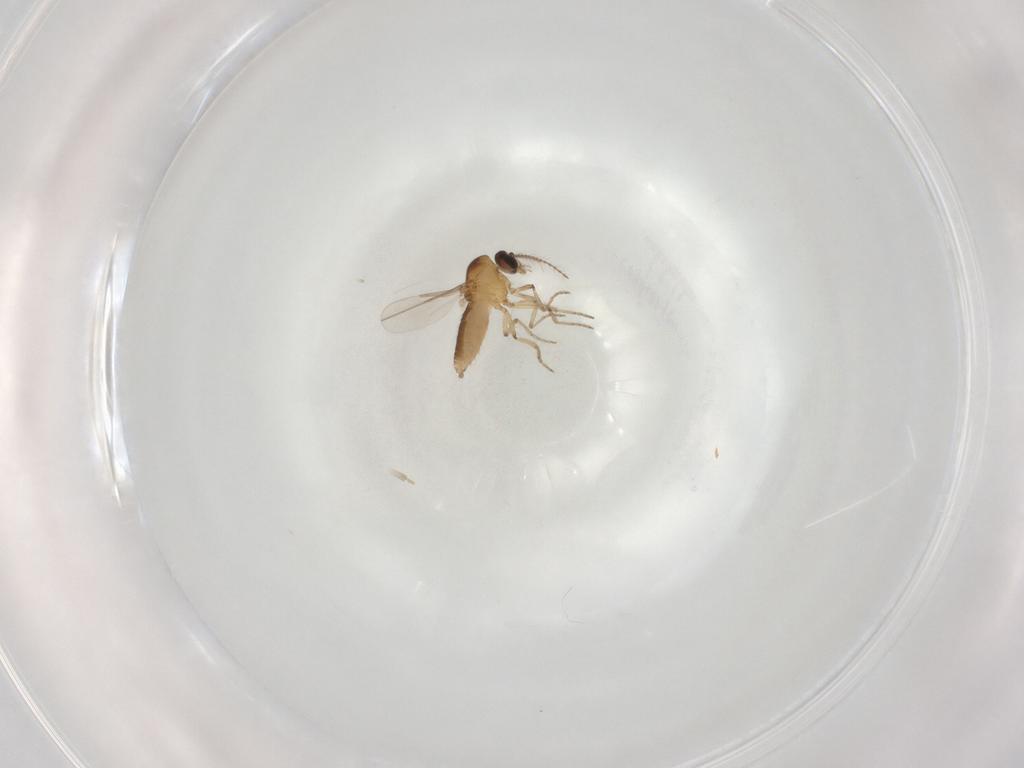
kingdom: Animalia
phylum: Arthropoda
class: Insecta
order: Diptera
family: Ceratopogonidae
